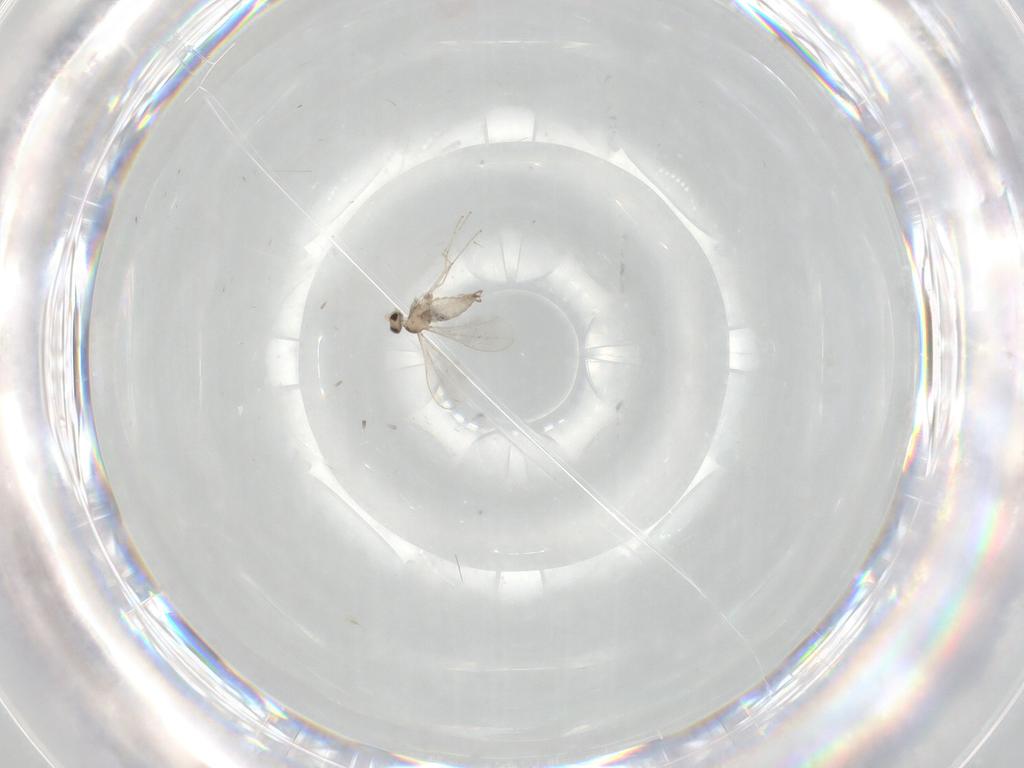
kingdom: Animalia
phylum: Arthropoda
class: Insecta
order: Diptera
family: Cecidomyiidae
